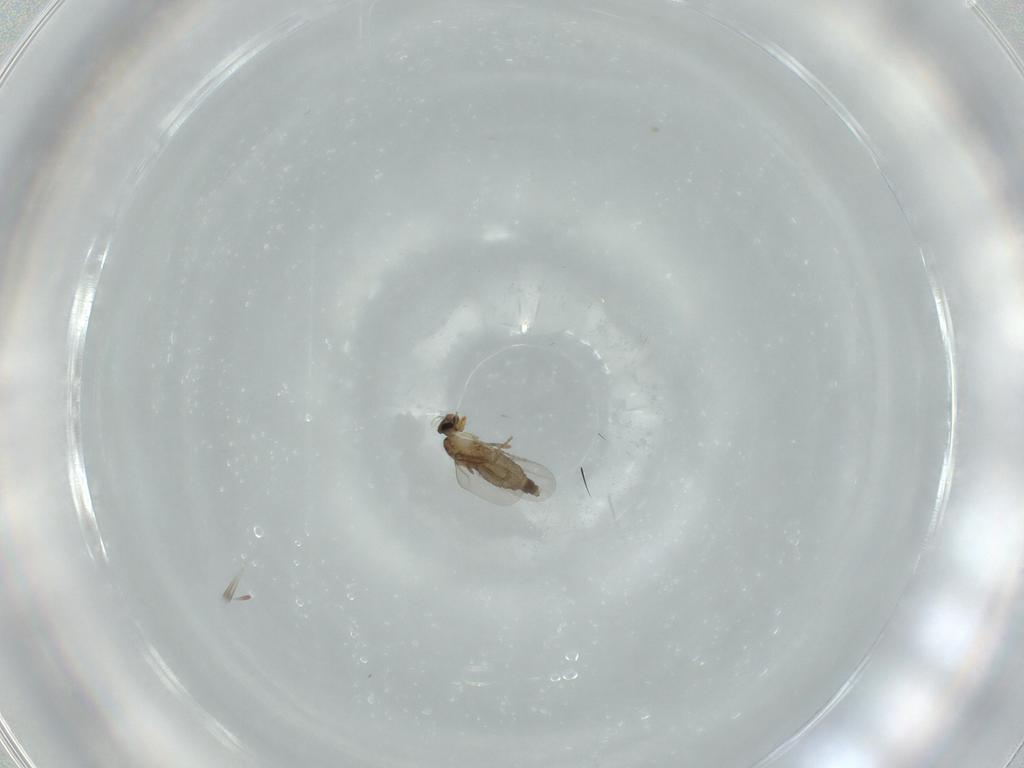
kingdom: Animalia
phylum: Arthropoda
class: Insecta
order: Diptera
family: Phoridae
